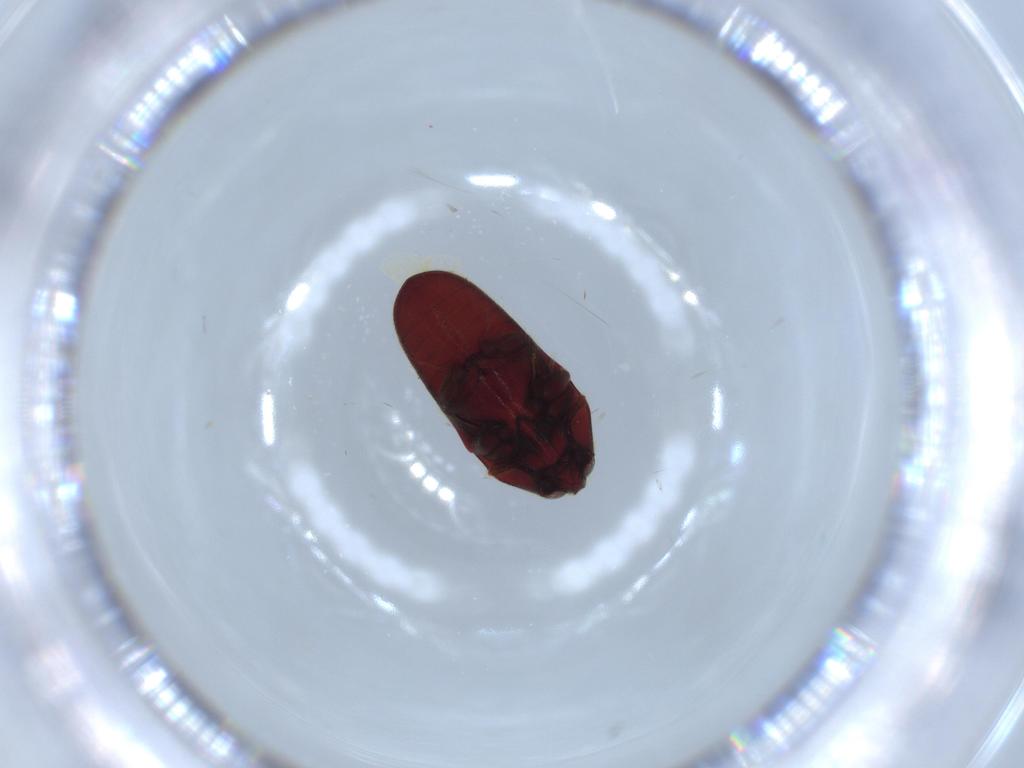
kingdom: Animalia
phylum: Arthropoda
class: Insecta
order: Coleoptera
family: Throscidae
